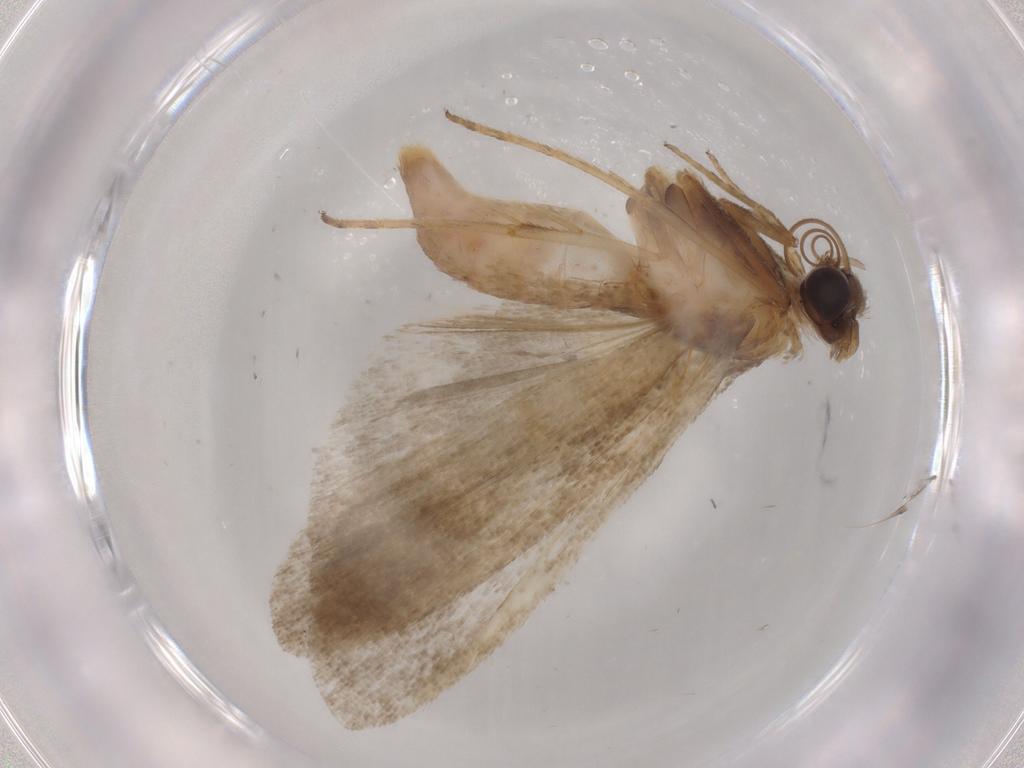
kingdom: Animalia
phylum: Arthropoda
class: Insecta
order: Lepidoptera
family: Noctuidae
